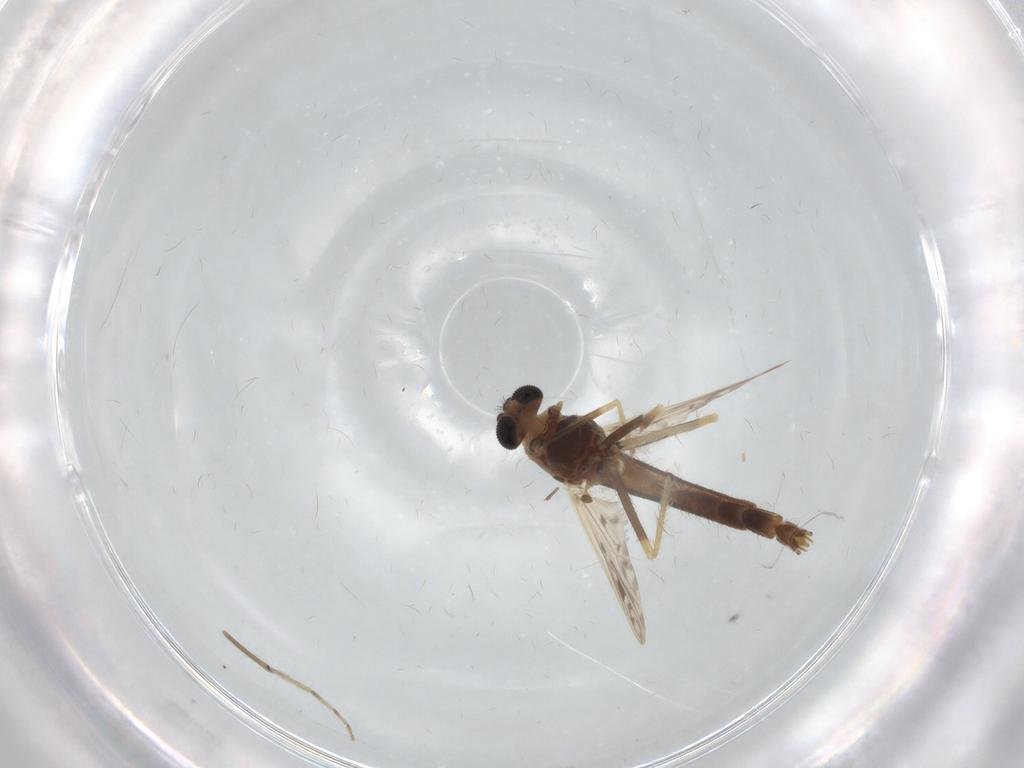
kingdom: Animalia
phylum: Arthropoda
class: Insecta
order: Diptera
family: Chironomidae
